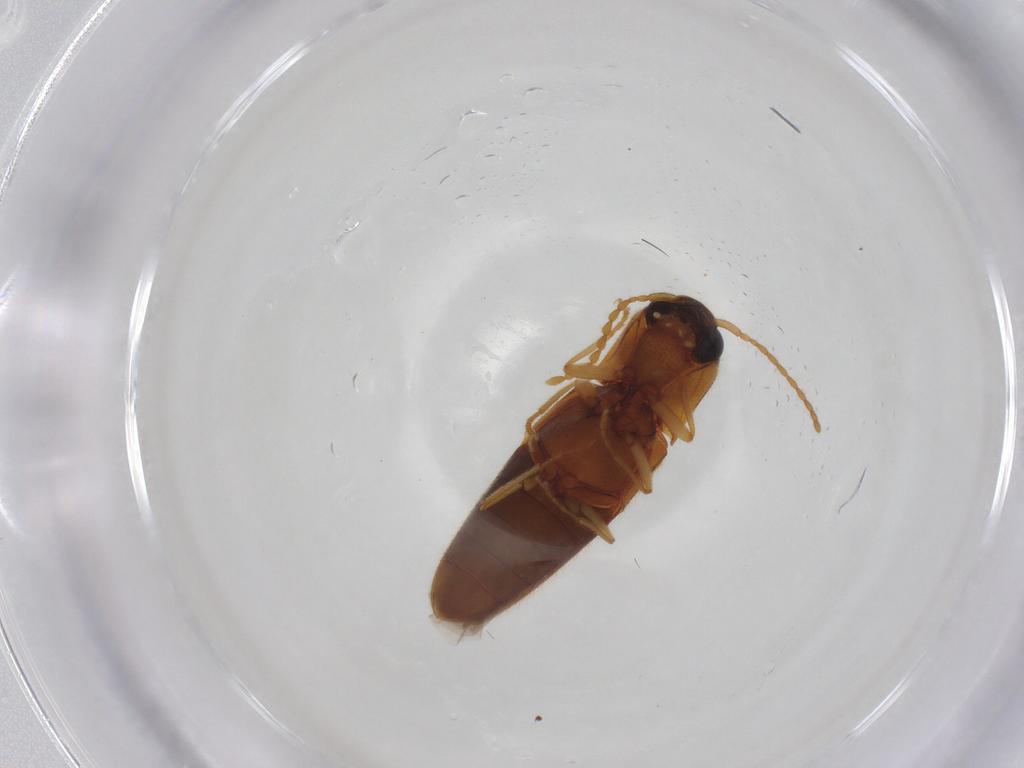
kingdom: Animalia
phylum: Arthropoda
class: Insecta
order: Coleoptera
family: Elateridae
